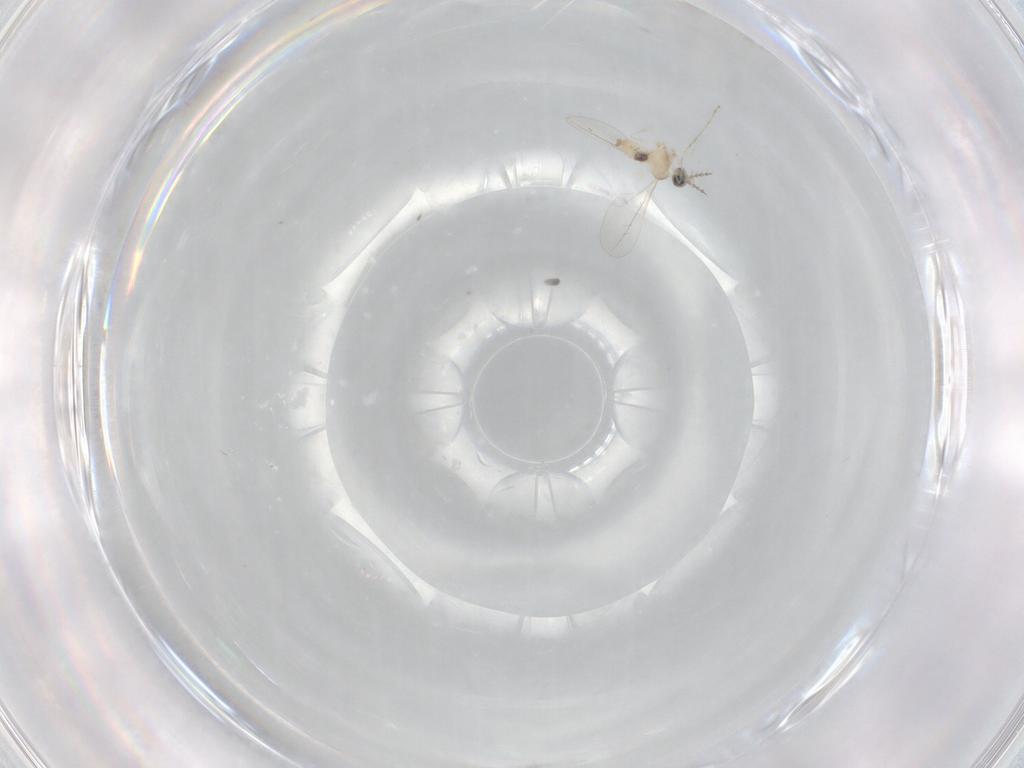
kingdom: Animalia
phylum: Arthropoda
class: Insecta
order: Diptera
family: Cecidomyiidae
